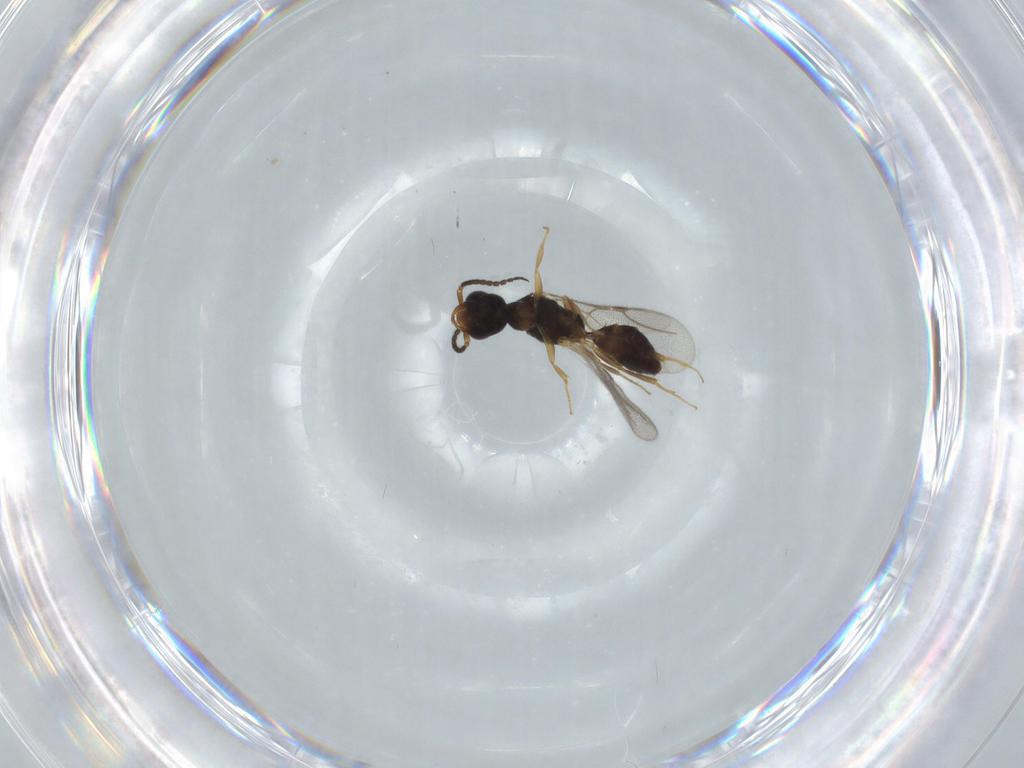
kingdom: Animalia
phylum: Arthropoda
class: Insecta
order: Hymenoptera
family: Bethylidae
